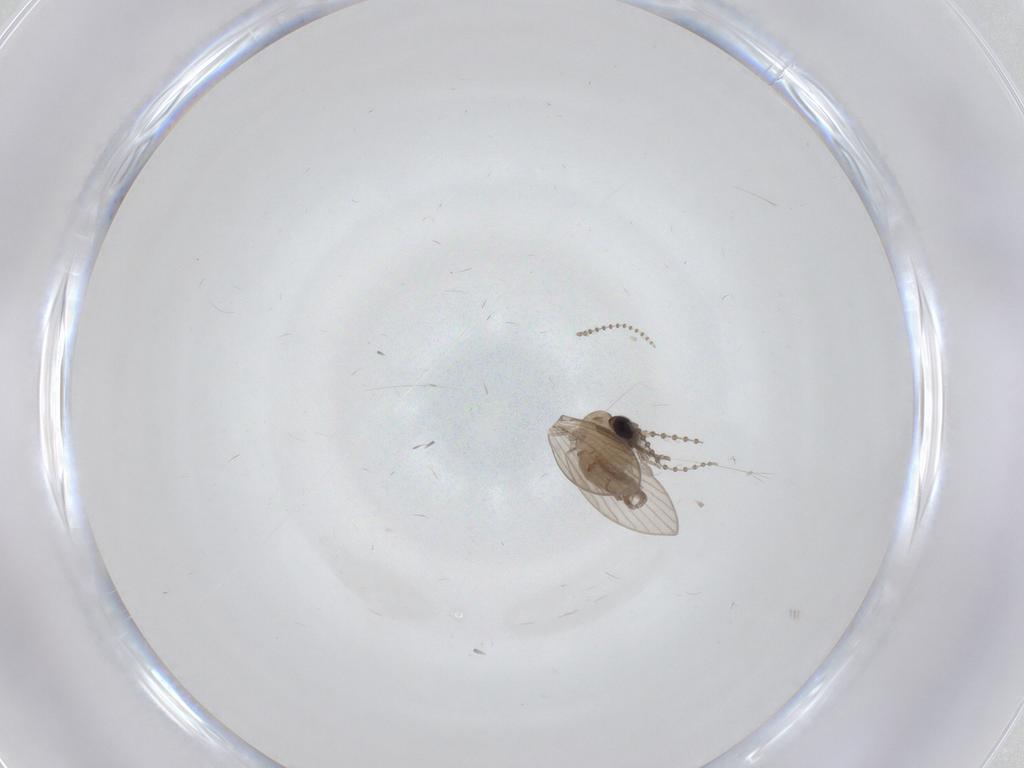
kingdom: Animalia
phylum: Arthropoda
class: Insecta
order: Diptera
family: Psychodidae
